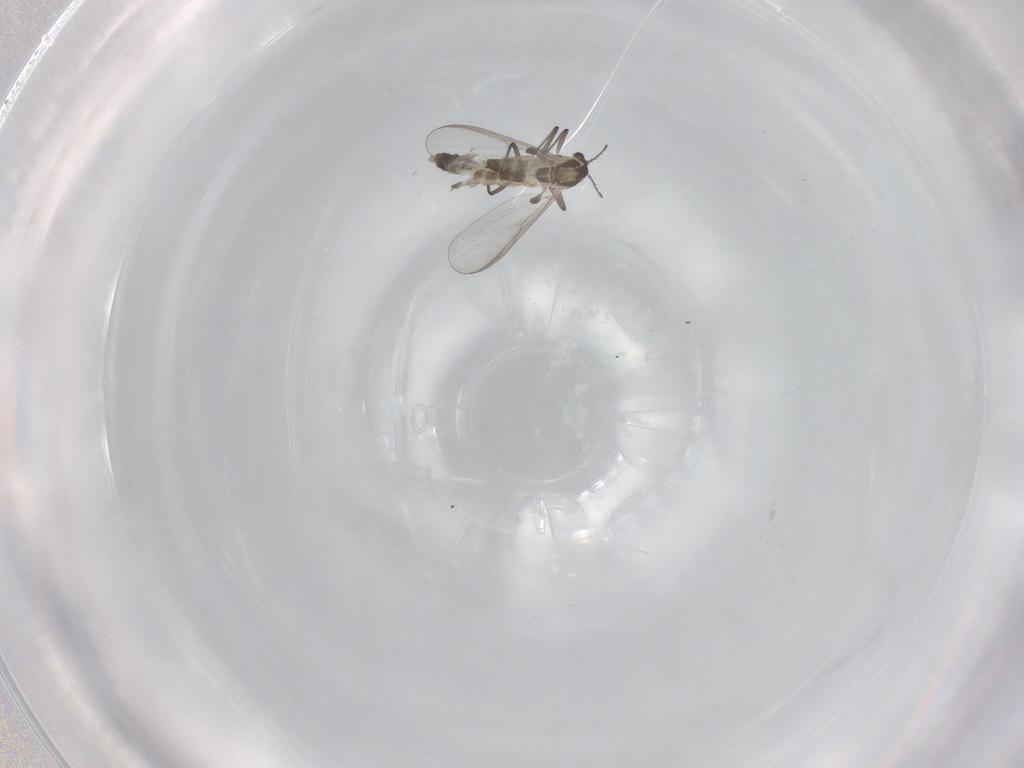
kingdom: Animalia
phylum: Arthropoda
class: Insecta
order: Diptera
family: Chironomidae
